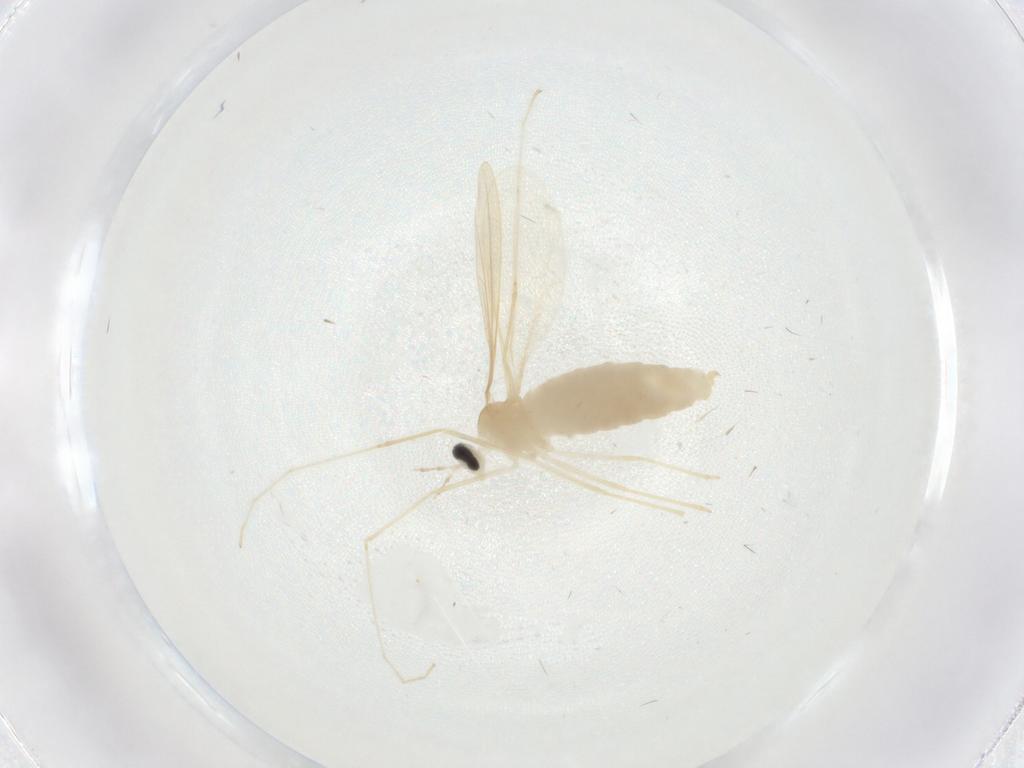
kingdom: Animalia
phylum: Arthropoda
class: Insecta
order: Diptera
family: Cecidomyiidae
